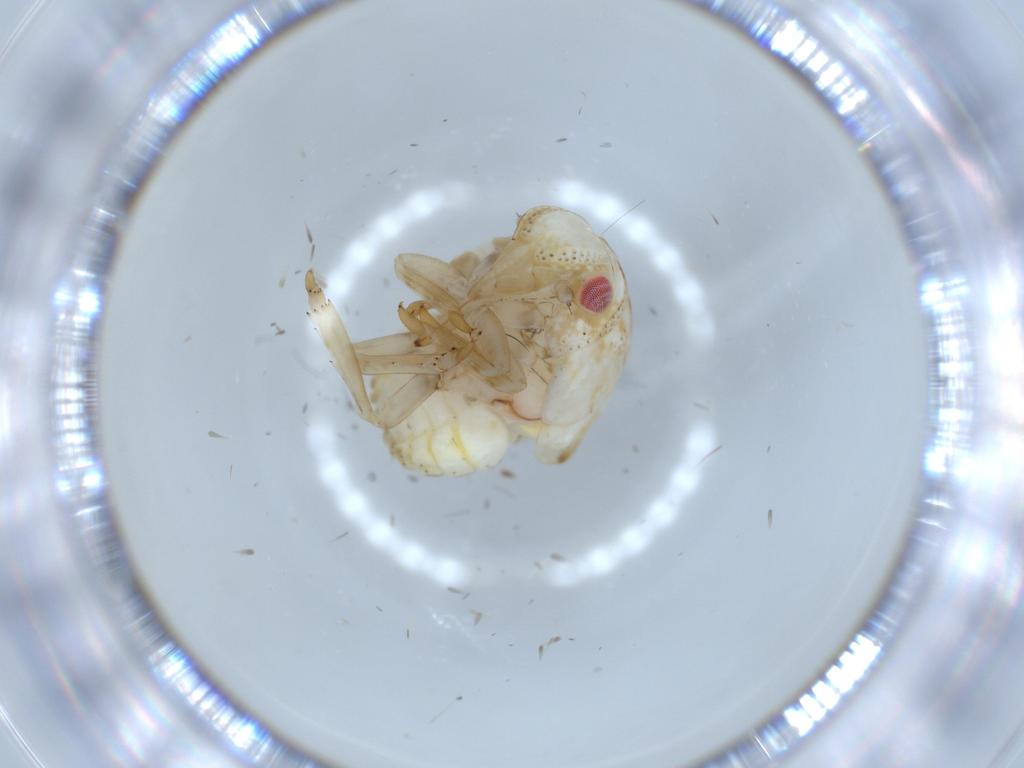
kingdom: Animalia
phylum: Arthropoda
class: Insecta
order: Hemiptera
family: Acanaloniidae
